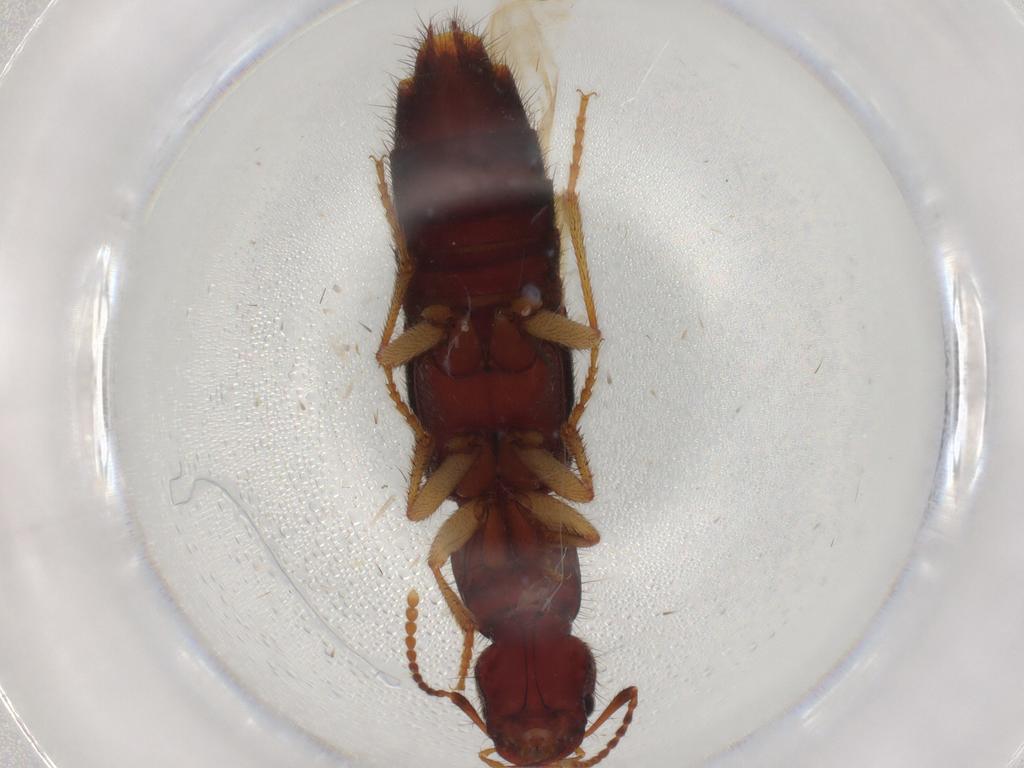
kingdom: Animalia
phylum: Arthropoda
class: Insecta
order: Coleoptera
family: Staphylinidae
